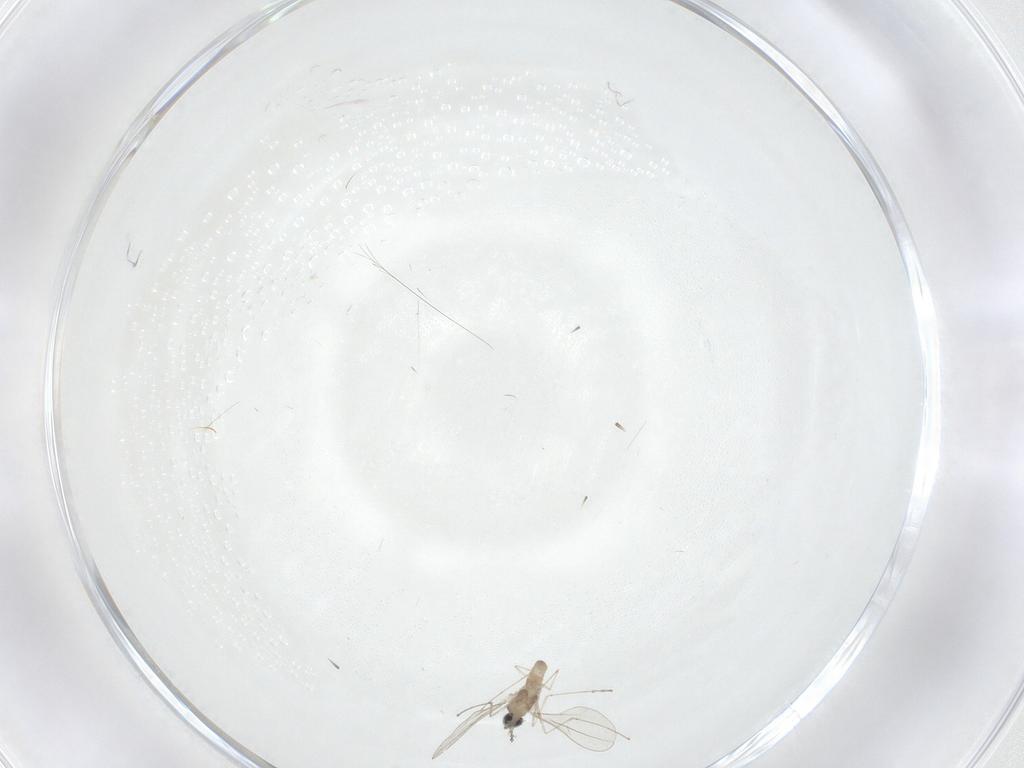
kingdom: Animalia
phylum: Arthropoda
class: Insecta
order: Diptera
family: Cecidomyiidae
